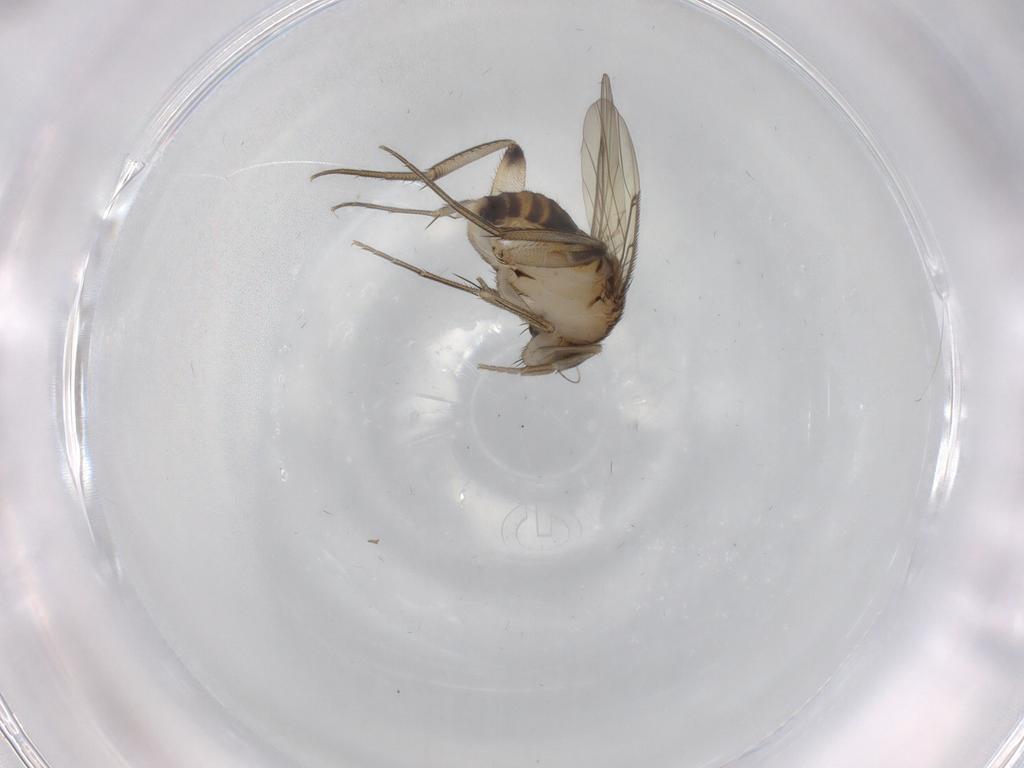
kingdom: Animalia
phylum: Arthropoda
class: Insecta
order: Diptera
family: Phoridae
